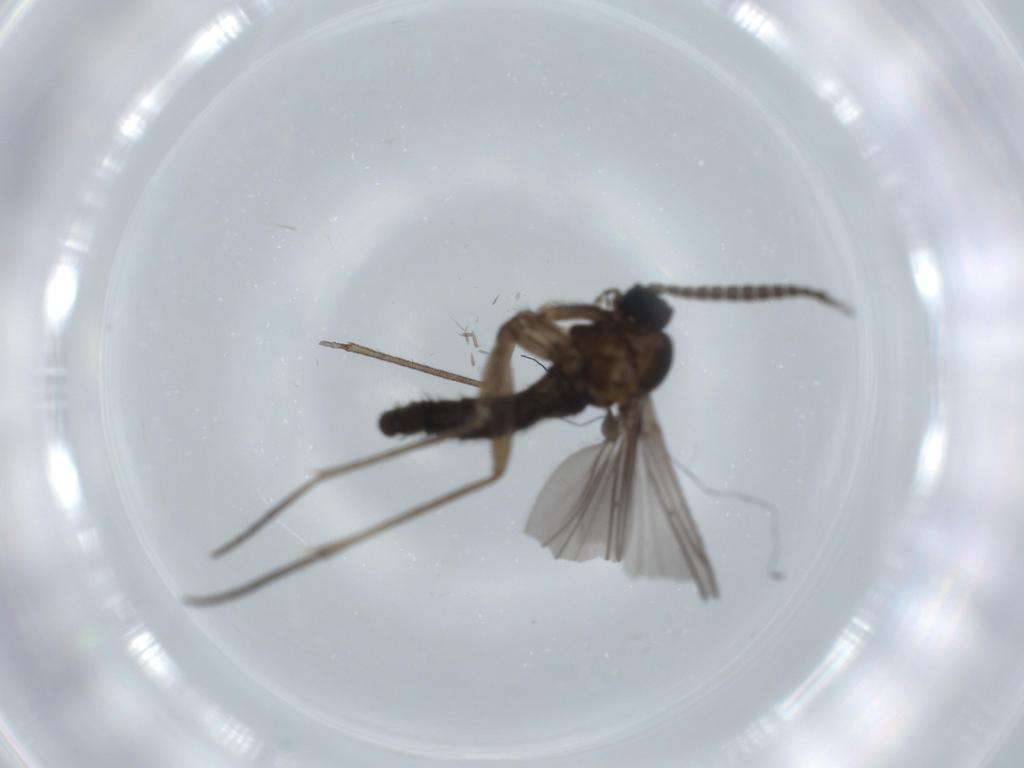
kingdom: Animalia
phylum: Arthropoda
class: Insecta
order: Diptera
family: Sciaridae
